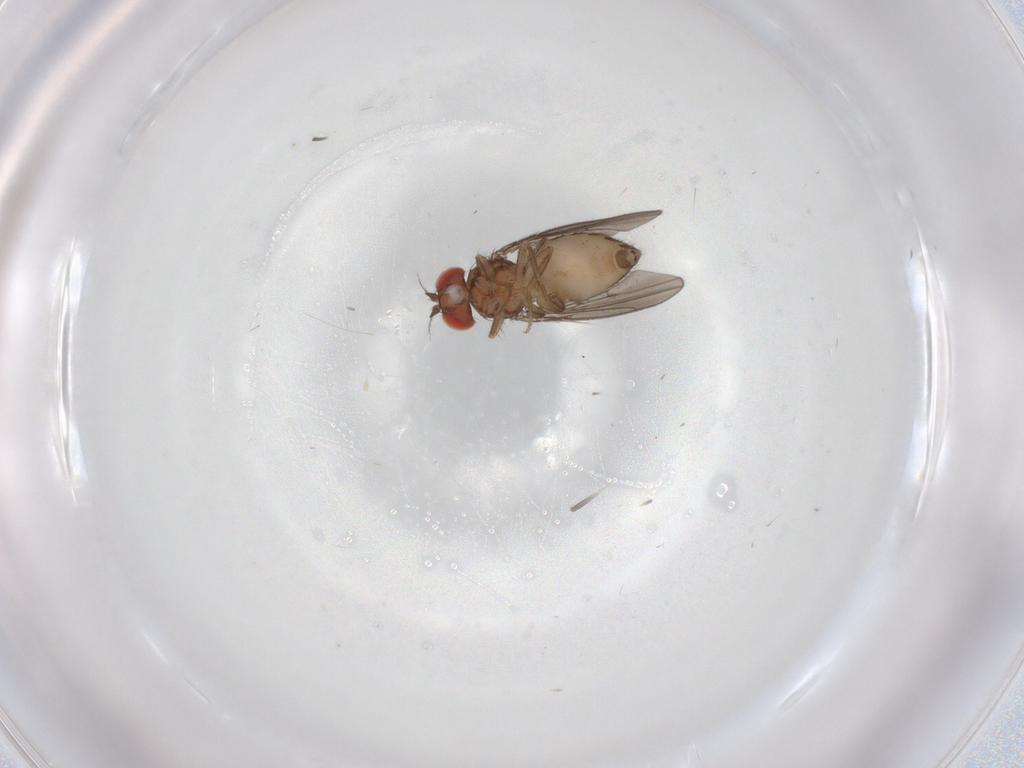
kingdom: Animalia
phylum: Arthropoda
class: Insecta
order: Diptera
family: Drosophilidae
